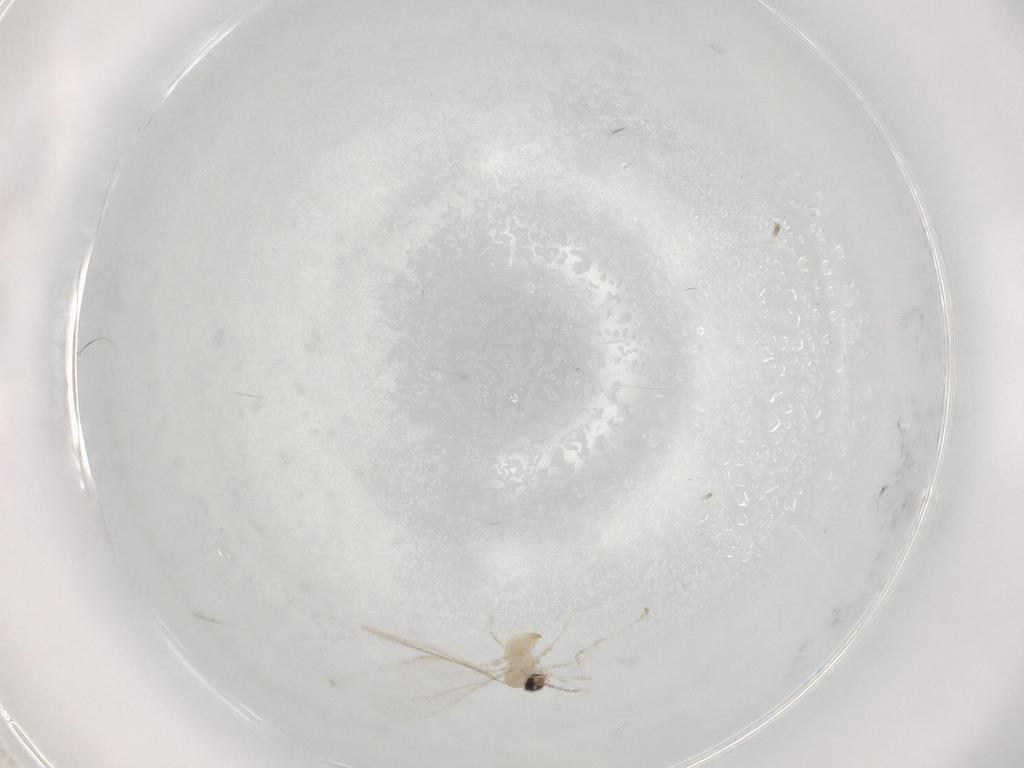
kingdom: Animalia
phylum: Arthropoda
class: Insecta
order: Diptera
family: Cecidomyiidae
